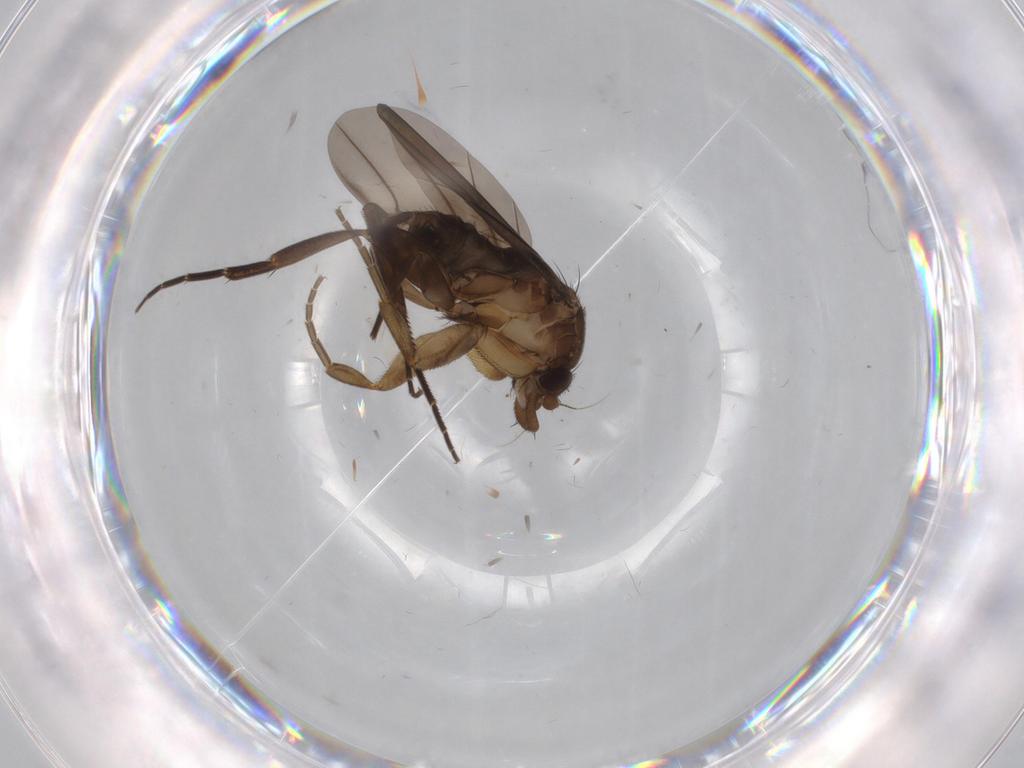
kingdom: Animalia
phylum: Arthropoda
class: Insecta
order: Diptera
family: Phoridae
